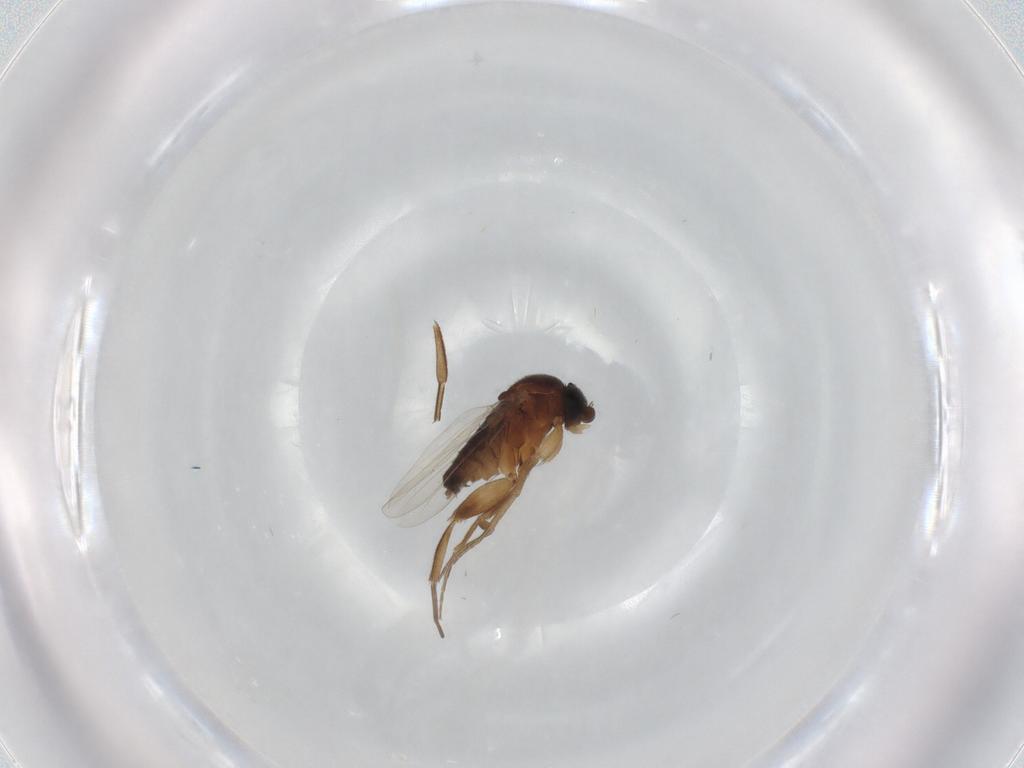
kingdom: Animalia
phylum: Arthropoda
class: Insecta
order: Diptera
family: Phoridae
